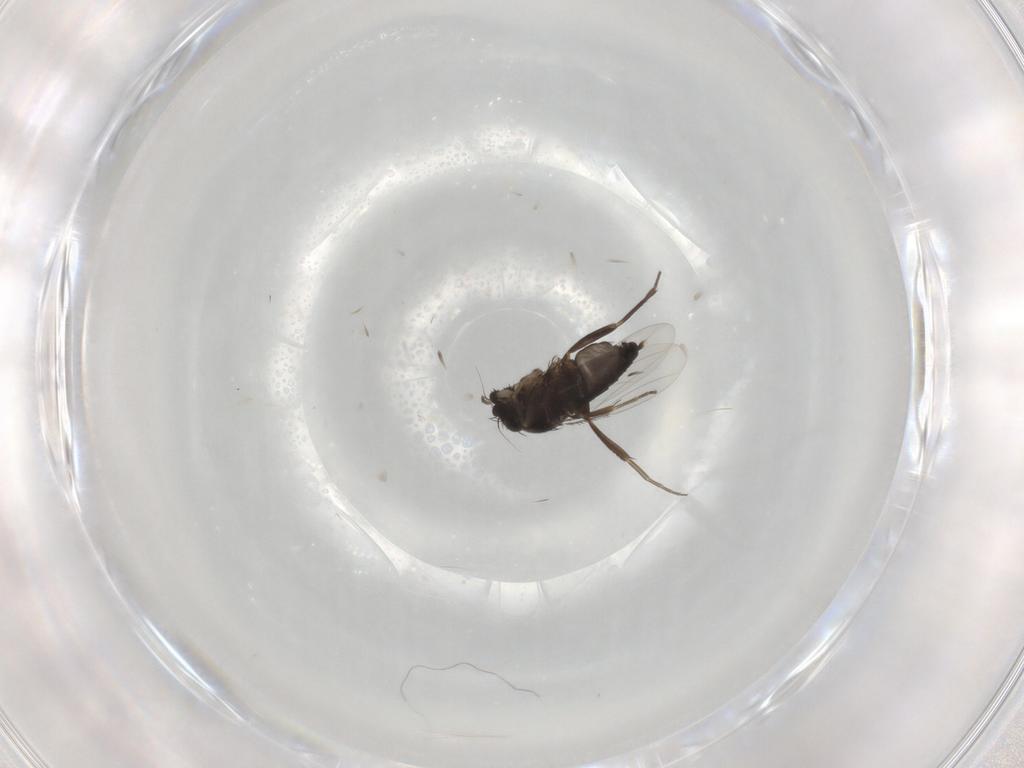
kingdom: Animalia
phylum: Arthropoda
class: Insecta
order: Diptera
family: Phoridae
